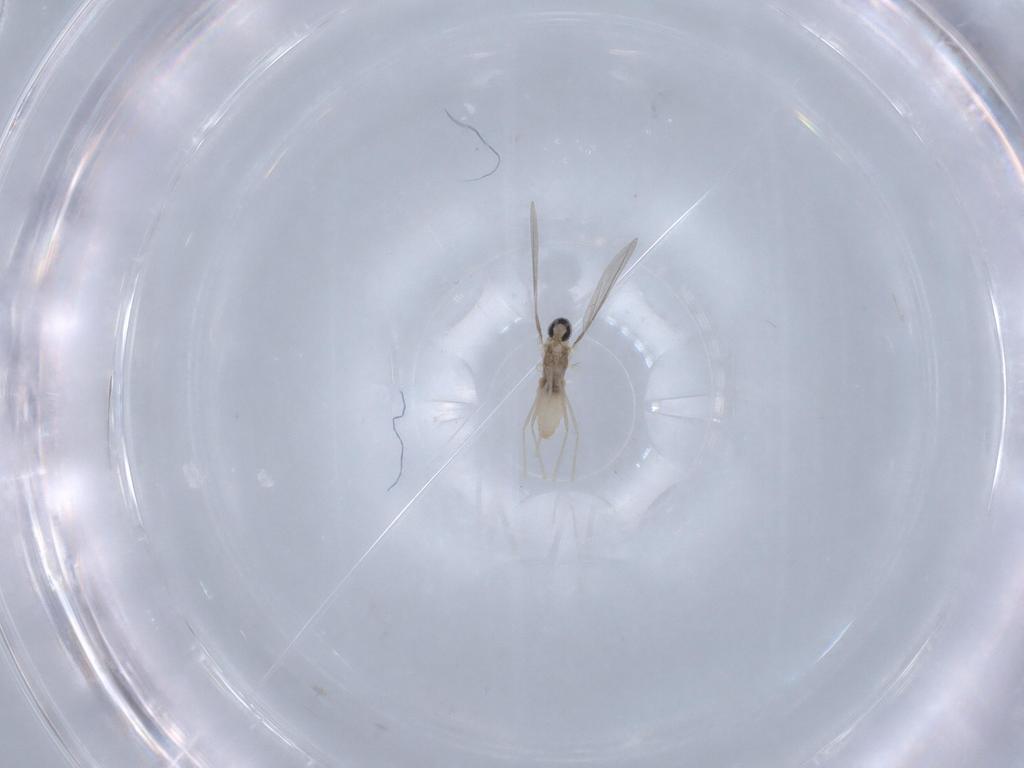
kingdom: Animalia
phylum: Arthropoda
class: Insecta
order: Diptera
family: Cecidomyiidae
